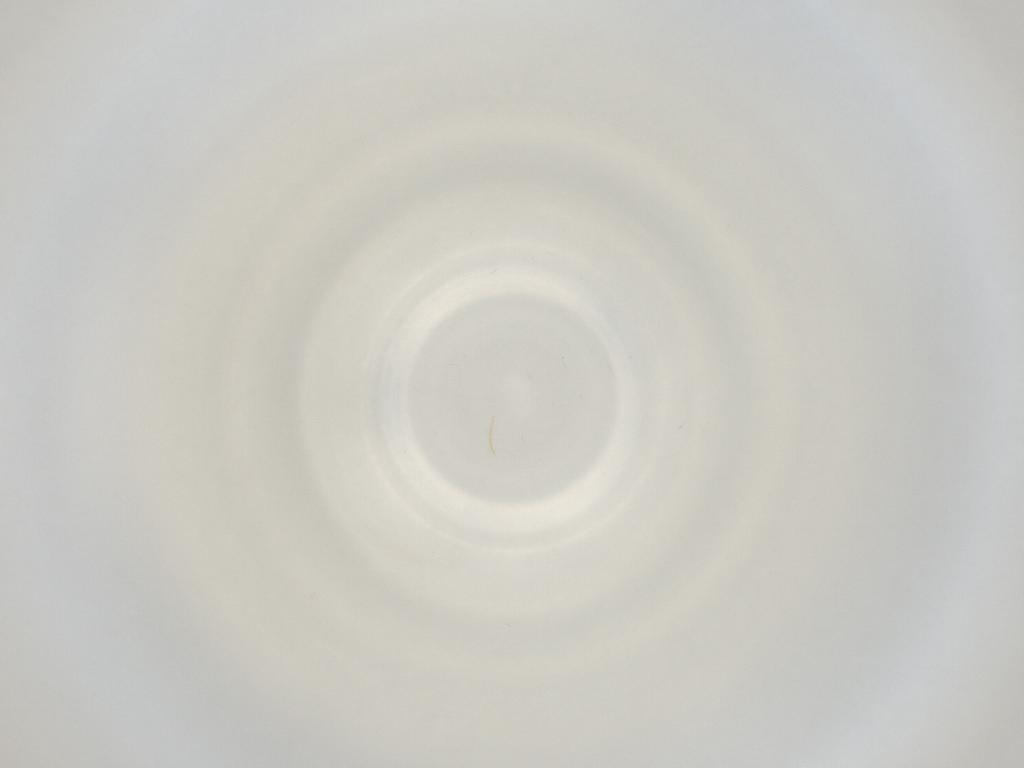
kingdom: Animalia
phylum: Arthropoda
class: Insecta
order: Diptera
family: Cecidomyiidae
